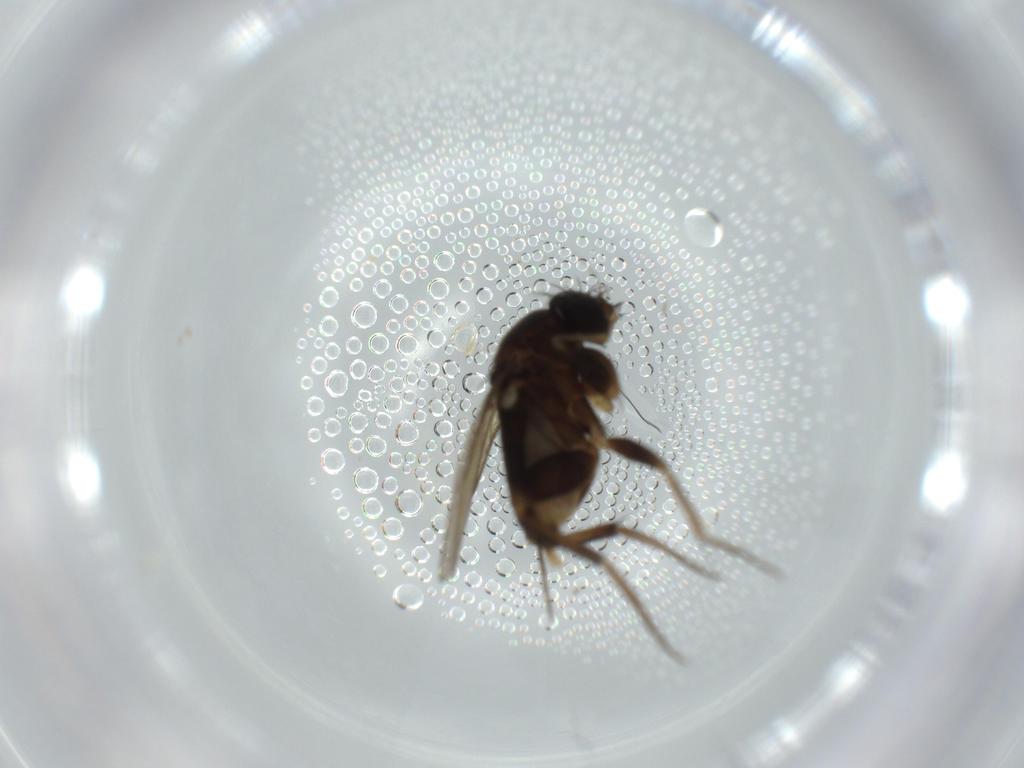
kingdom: Animalia
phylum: Arthropoda
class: Insecta
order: Diptera
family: Phoridae
